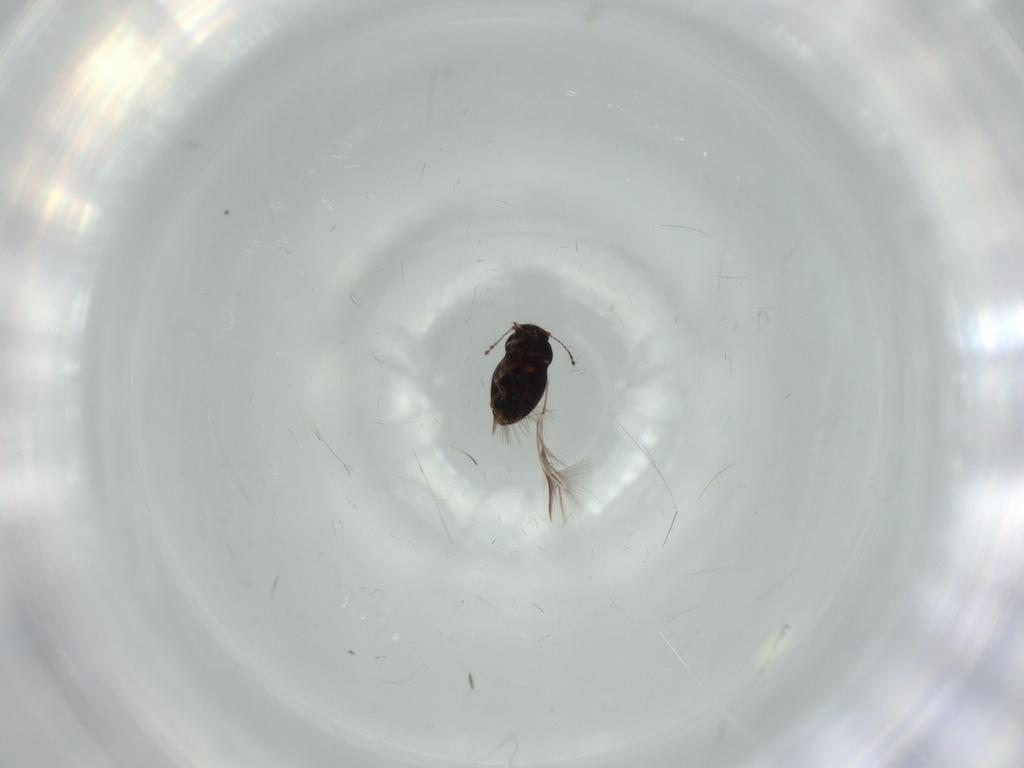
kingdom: Animalia
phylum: Arthropoda
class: Insecta
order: Coleoptera
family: Ptiliidae
